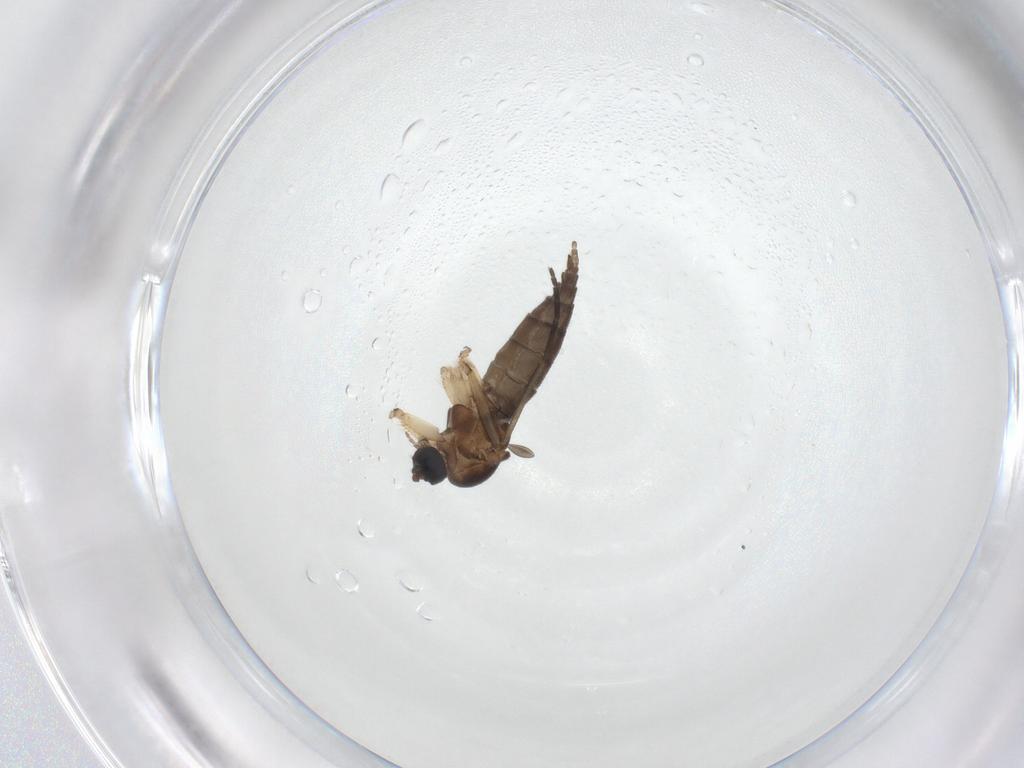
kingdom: Animalia
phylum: Arthropoda
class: Insecta
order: Diptera
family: Sciaridae
